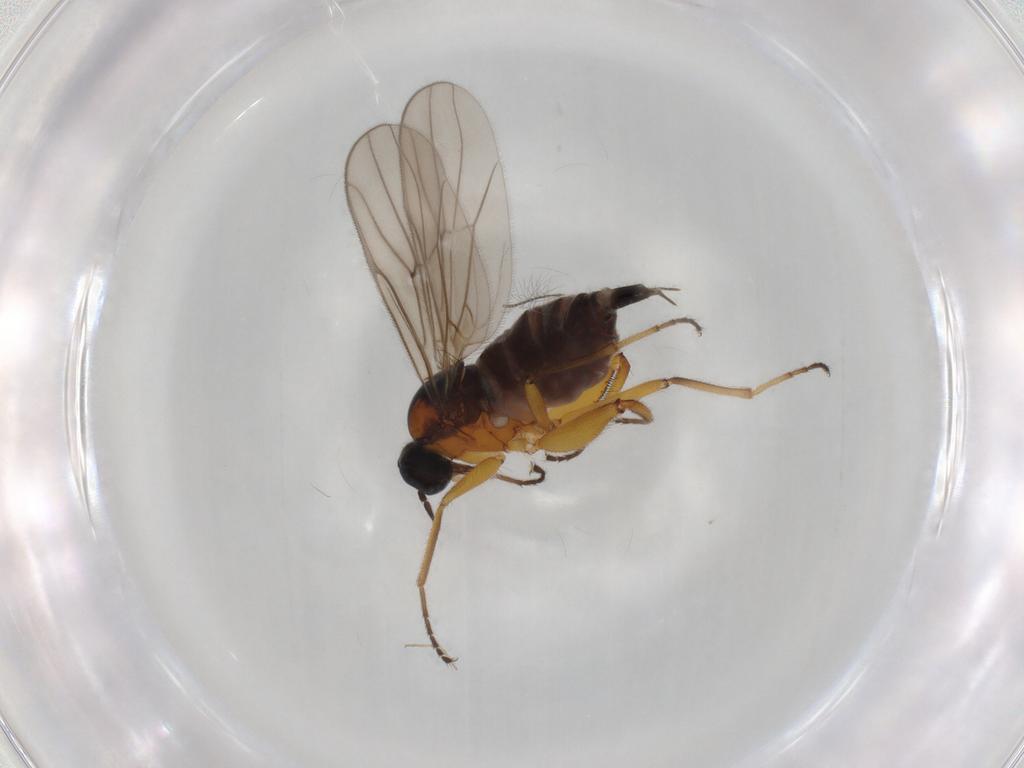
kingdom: Animalia
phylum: Arthropoda
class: Insecta
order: Diptera
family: Hybotidae
